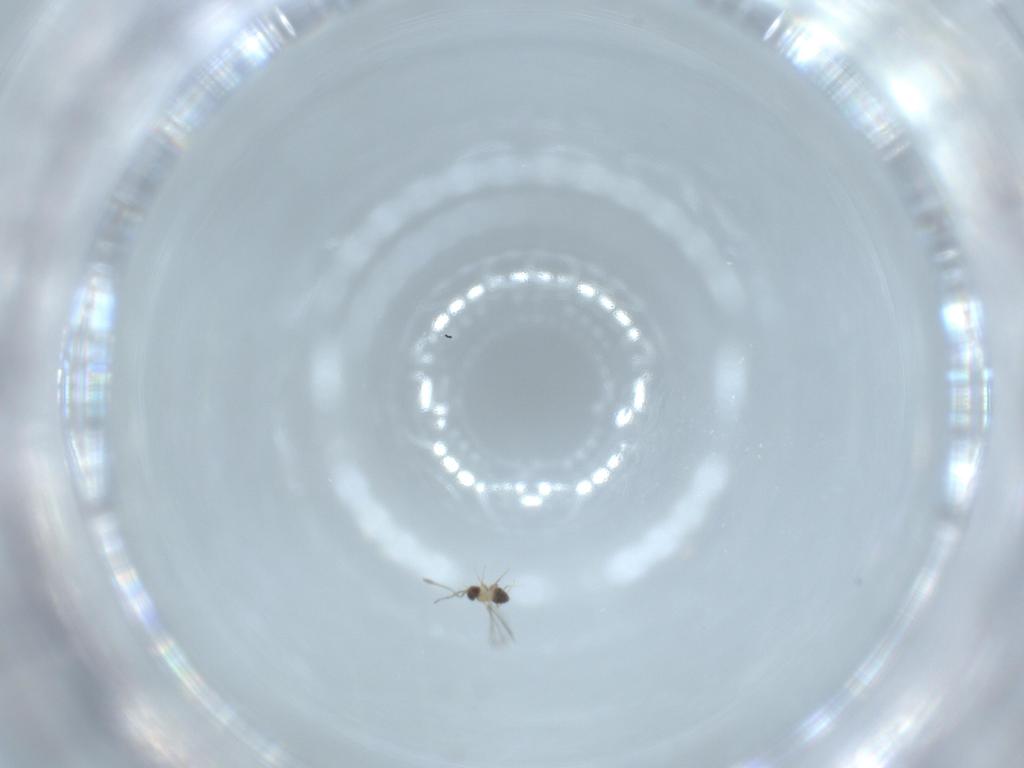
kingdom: Animalia
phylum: Arthropoda
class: Insecta
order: Hymenoptera
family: Mymaridae
